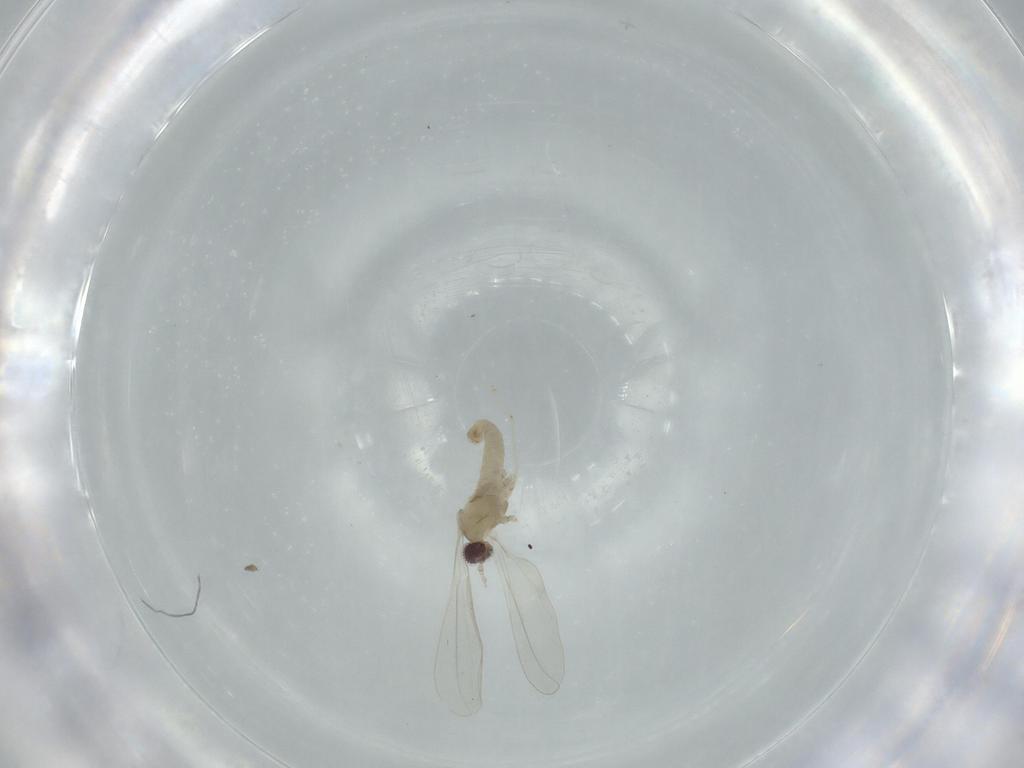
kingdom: Animalia
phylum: Arthropoda
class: Insecta
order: Diptera
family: Cecidomyiidae
